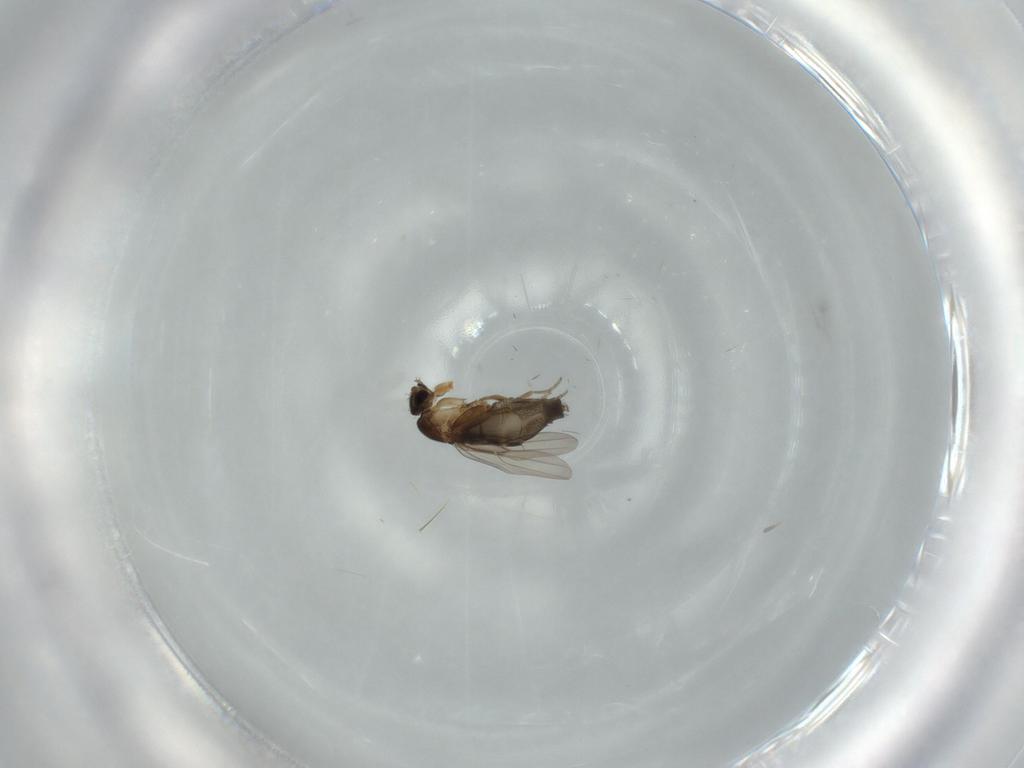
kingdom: Animalia
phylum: Arthropoda
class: Insecta
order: Diptera
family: Phoridae
